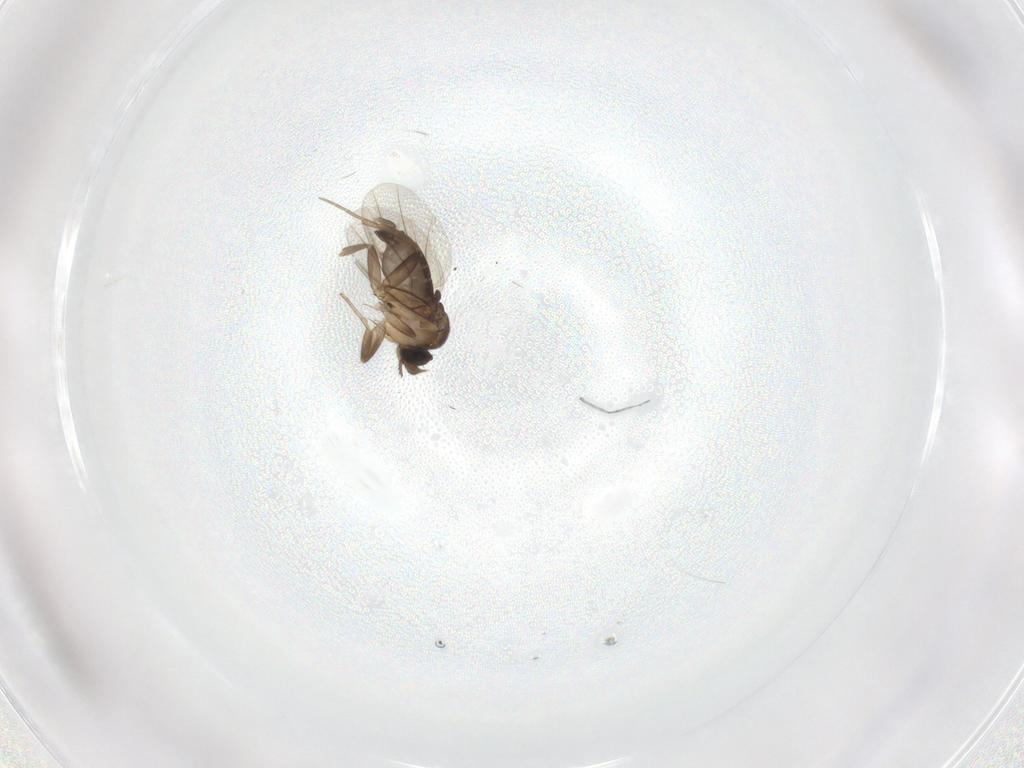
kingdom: Animalia
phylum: Arthropoda
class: Insecta
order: Diptera
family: Phoridae
